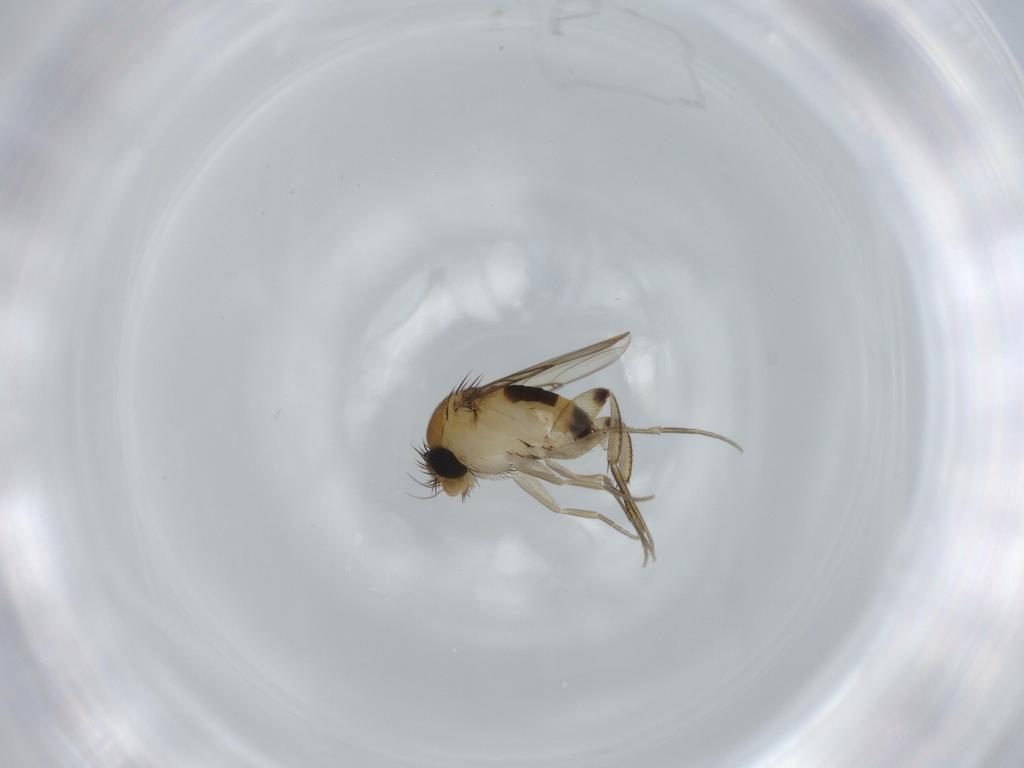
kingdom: Animalia
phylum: Arthropoda
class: Insecta
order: Diptera
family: Phoridae
